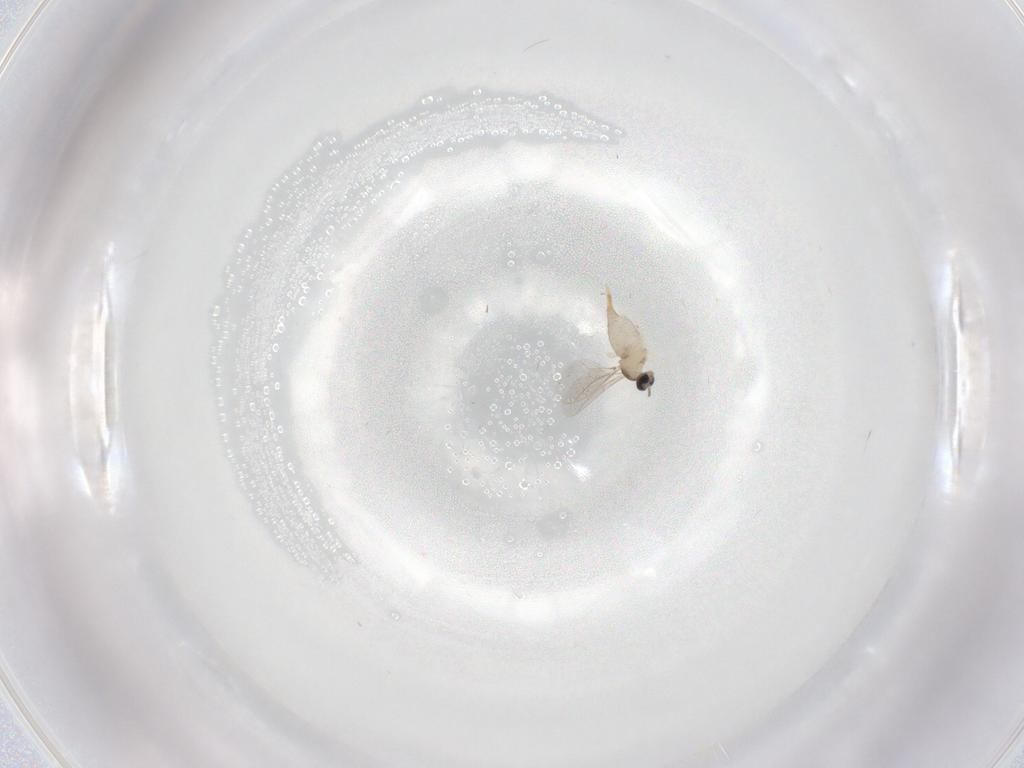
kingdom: Animalia
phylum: Arthropoda
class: Insecta
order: Diptera
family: Cecidomyiidae
